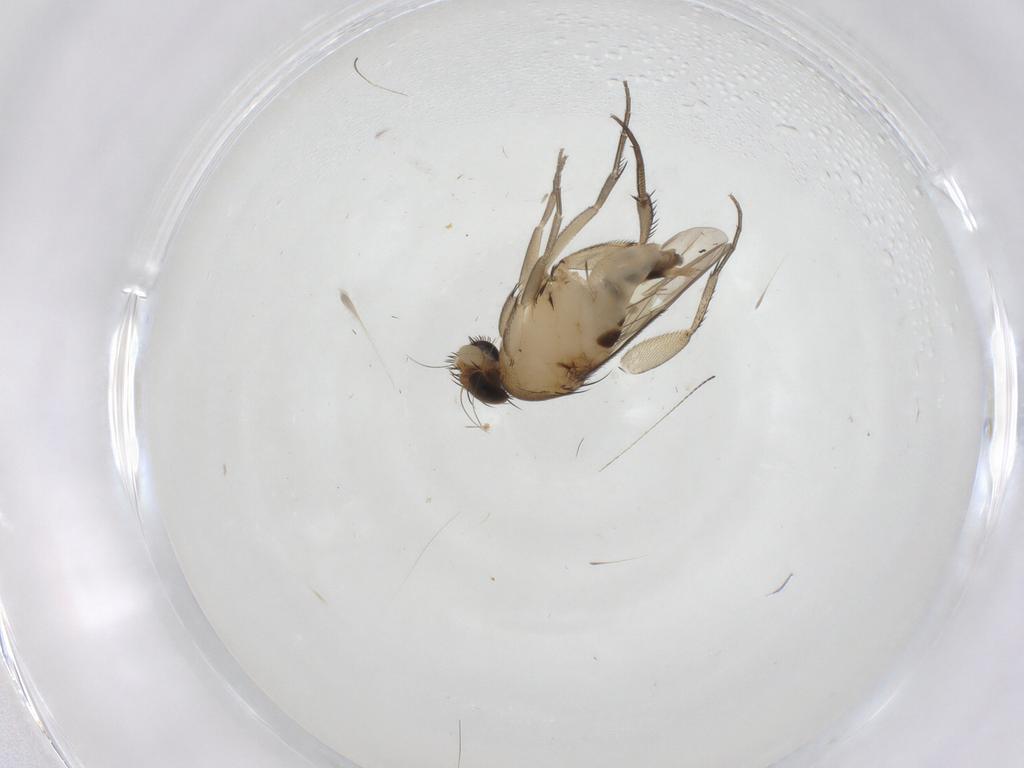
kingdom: Animalia
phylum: Arthropoda
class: Insecta
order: Diptera
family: Phoridae
